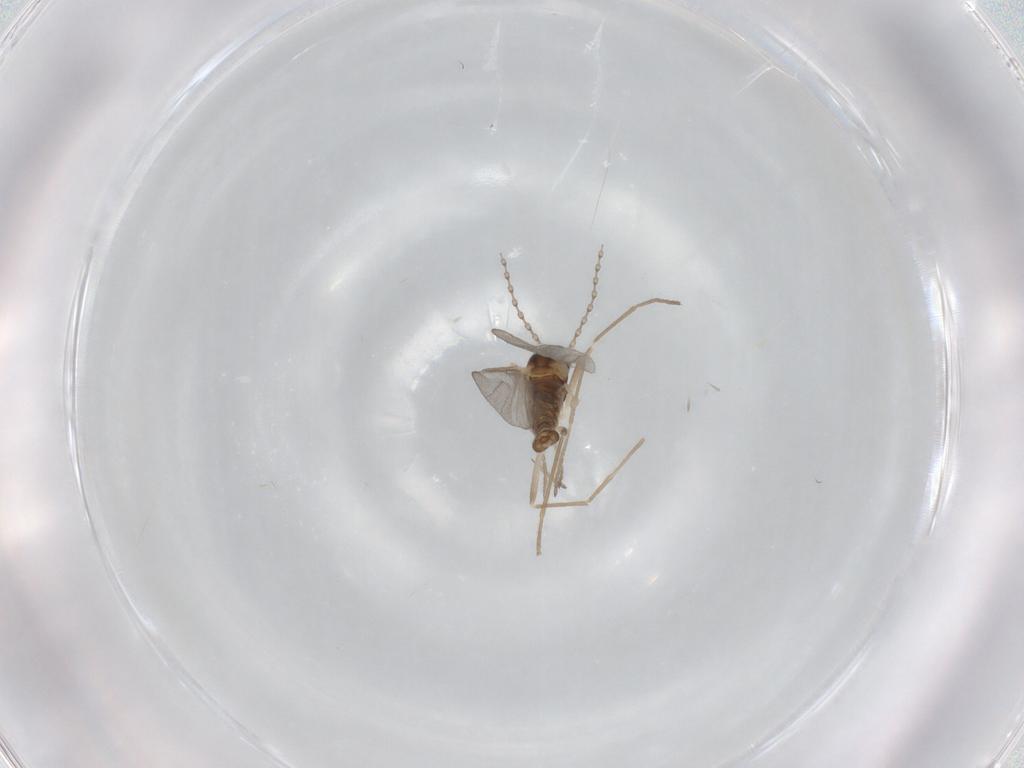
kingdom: Animalia
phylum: Arthropoda
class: Insecta
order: Diptera
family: Cecidomyiidae
